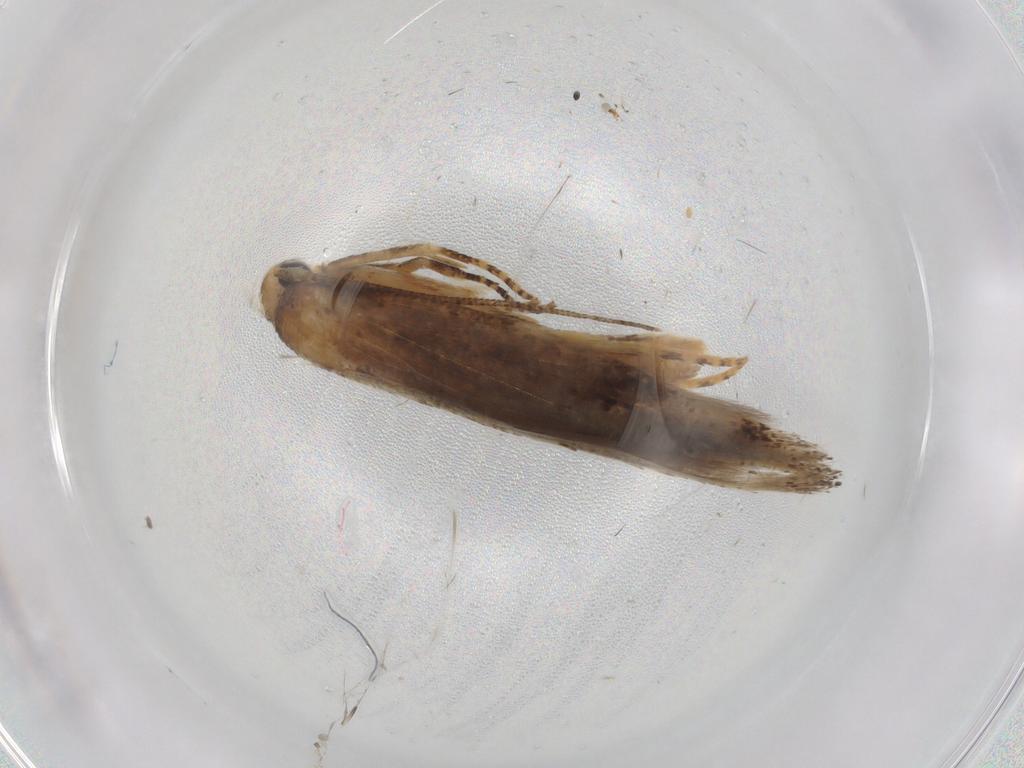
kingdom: Animalia
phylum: Arthropoda
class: Insecta
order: Lepidoptera
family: Momphidae
